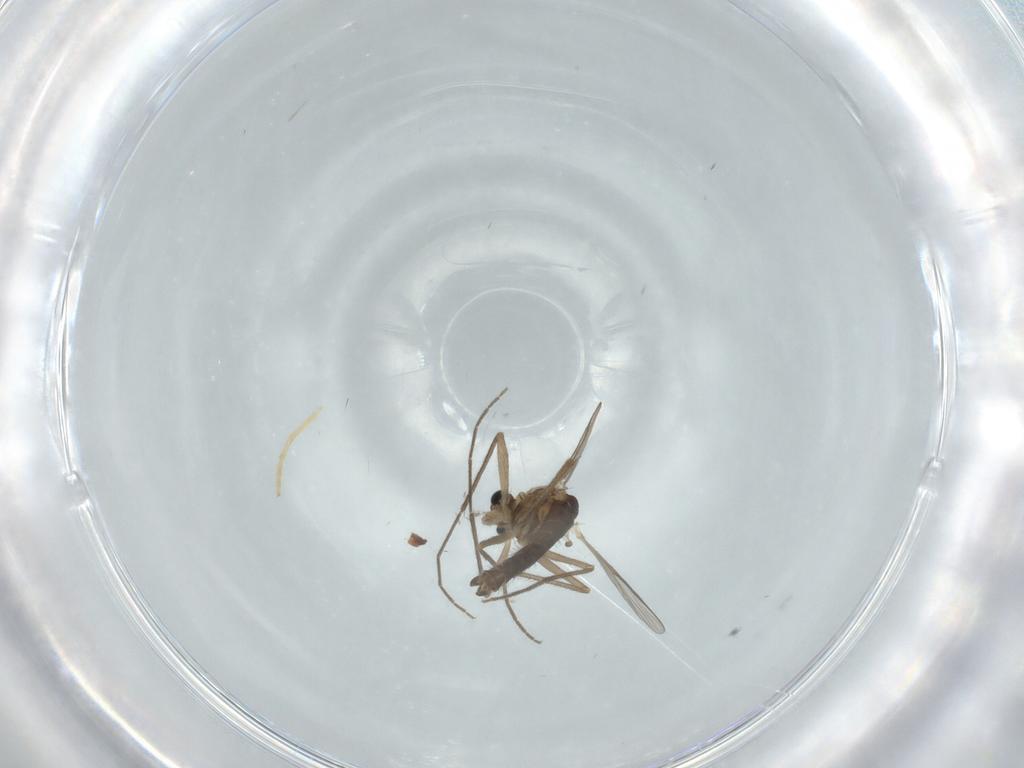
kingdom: Animalia
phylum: Arthropoda
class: Insecta
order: Diptera
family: Chironomidae
